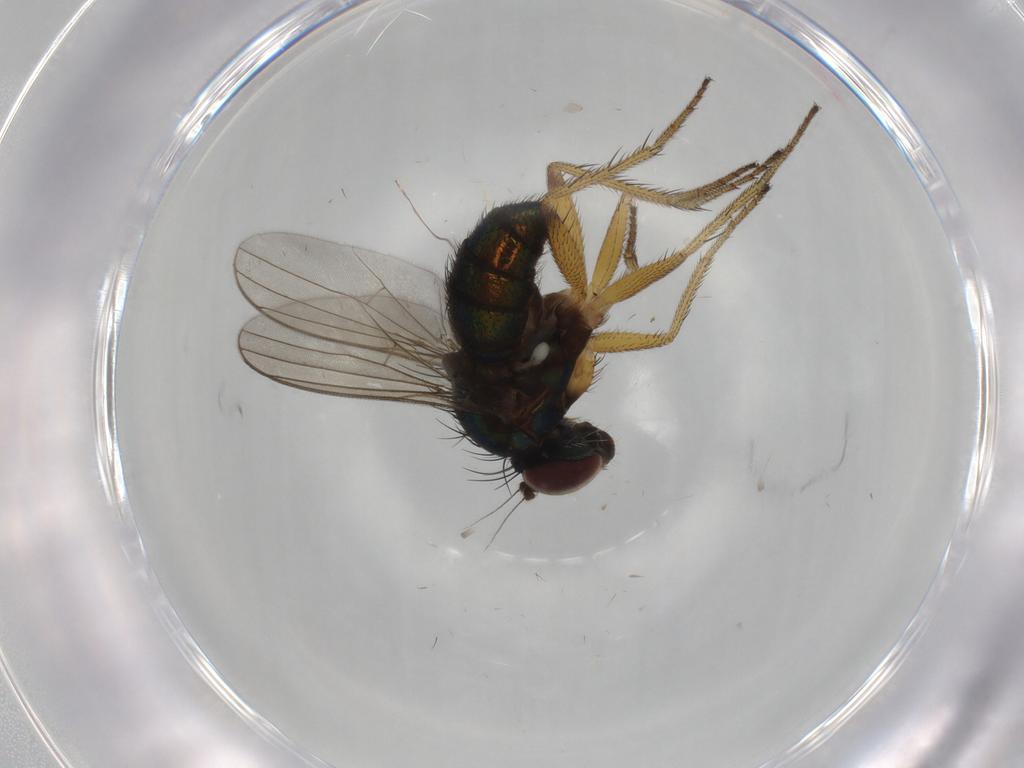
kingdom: Animalia
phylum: Arthropoda
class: Insecta
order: Diptera
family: Dolichopodidae
